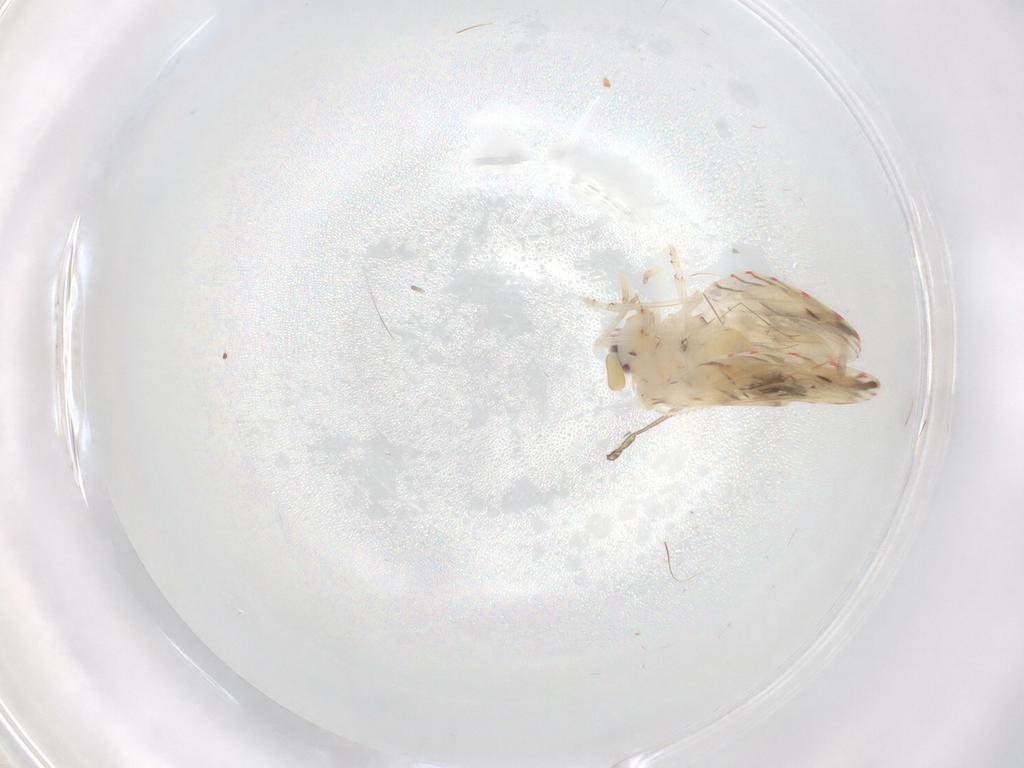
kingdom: Animalia
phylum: Arthropoda
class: Insecta
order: Hemiptera
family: Derbidae
